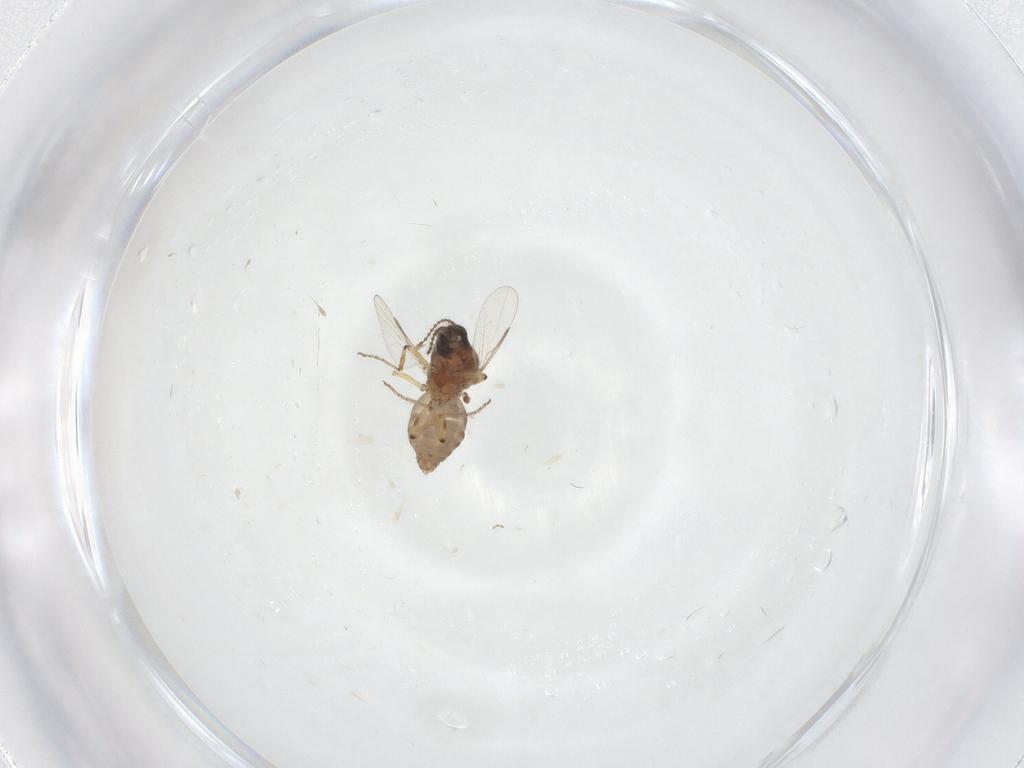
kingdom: Animalia
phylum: Arthropoda
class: Insecta
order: Diptera
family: Ceratopogonidae
